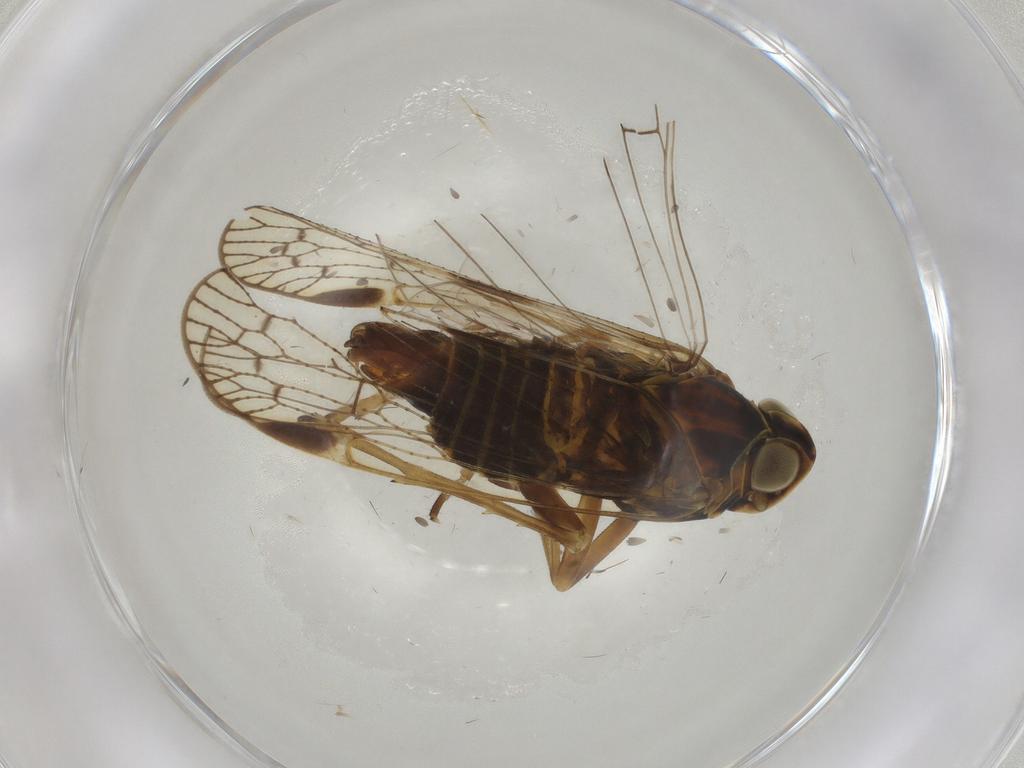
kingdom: Animalia
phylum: Arthropoda
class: Insecta
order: Hemiptera
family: Cixiidae
